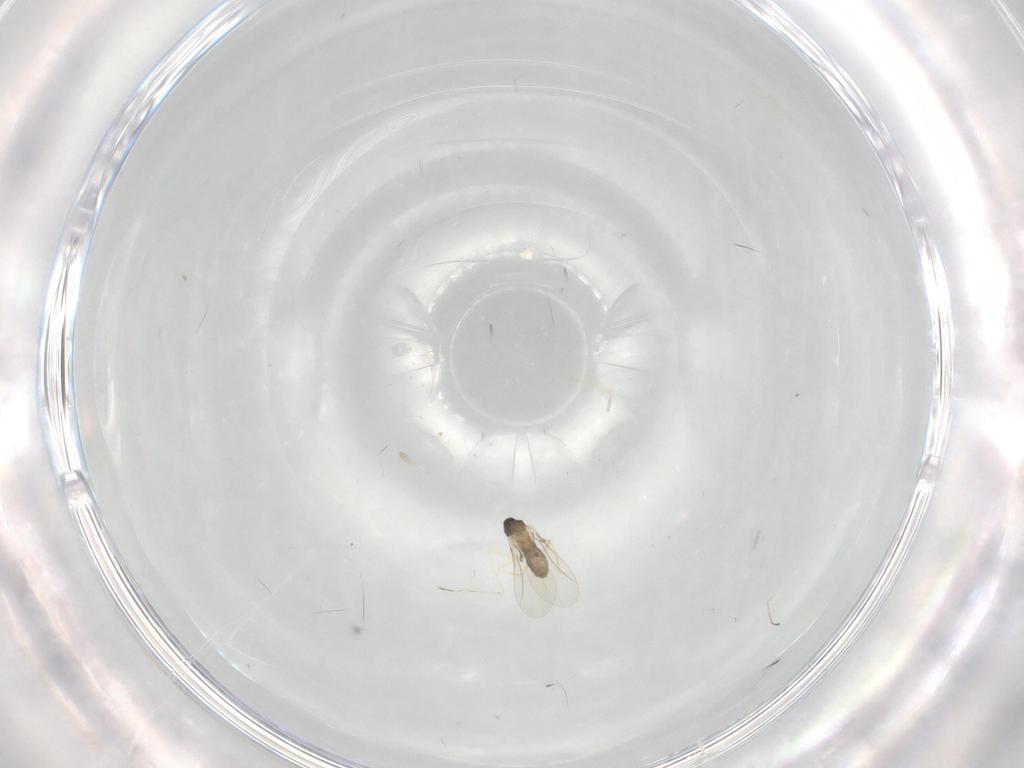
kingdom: Animalia
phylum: Arthropoda
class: Insecta
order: Diptera
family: Cecidomyiidae
